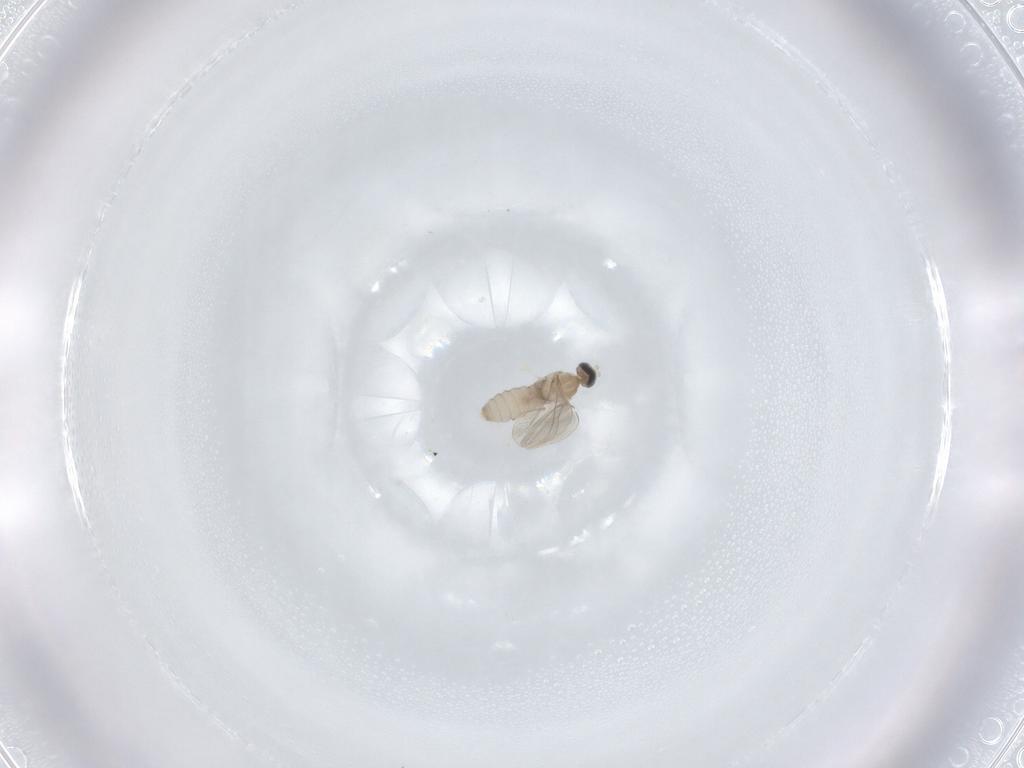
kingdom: Animalia
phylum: Arthropoda
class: Insecta
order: Diptera
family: Cecidomyiidae
